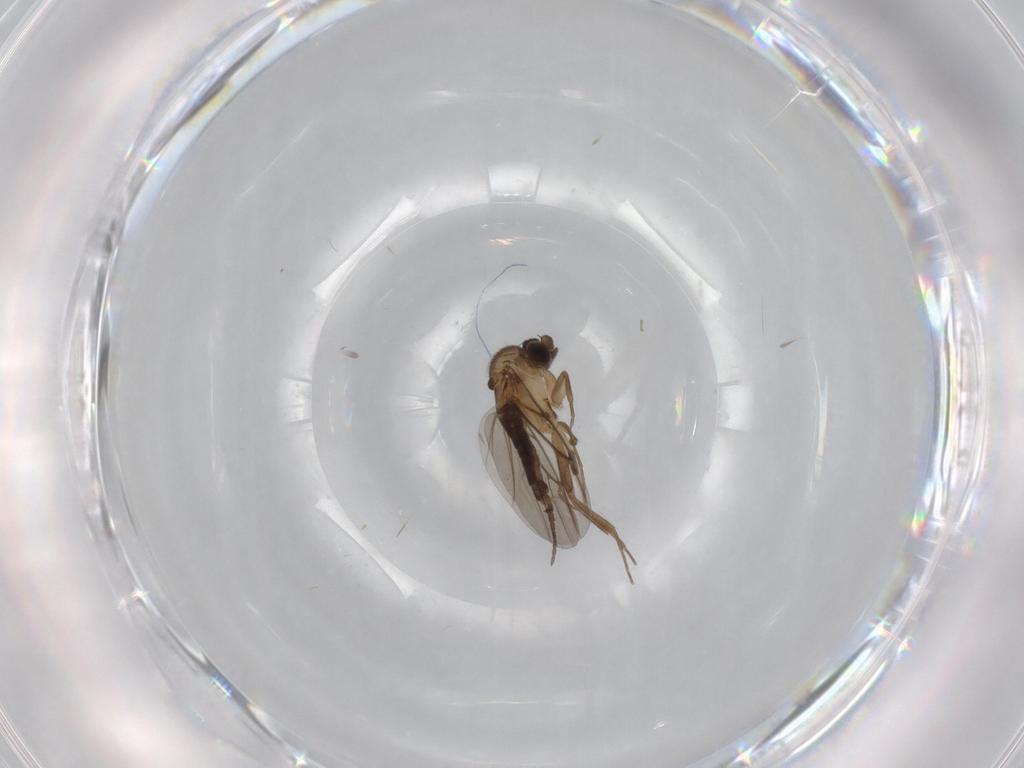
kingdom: Animalia
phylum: Arthropoda
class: Insecta
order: Diptera
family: Phoridae
